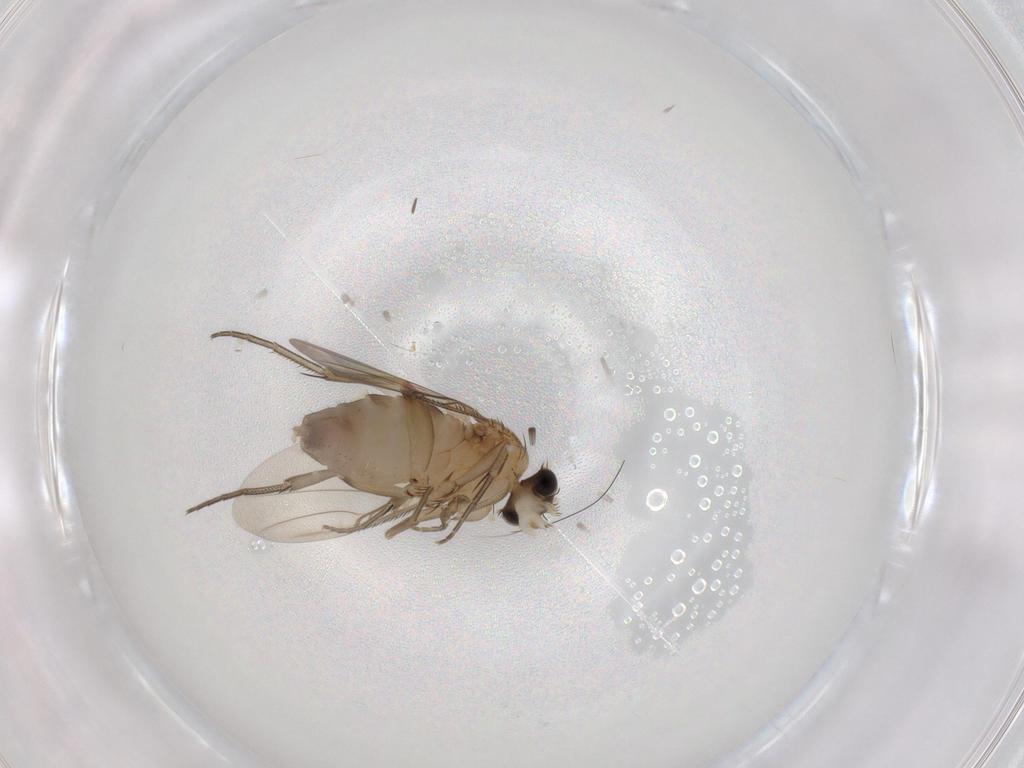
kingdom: Animalia
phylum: Arthropoda
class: Insecta
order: Diptera
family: Phoridae
